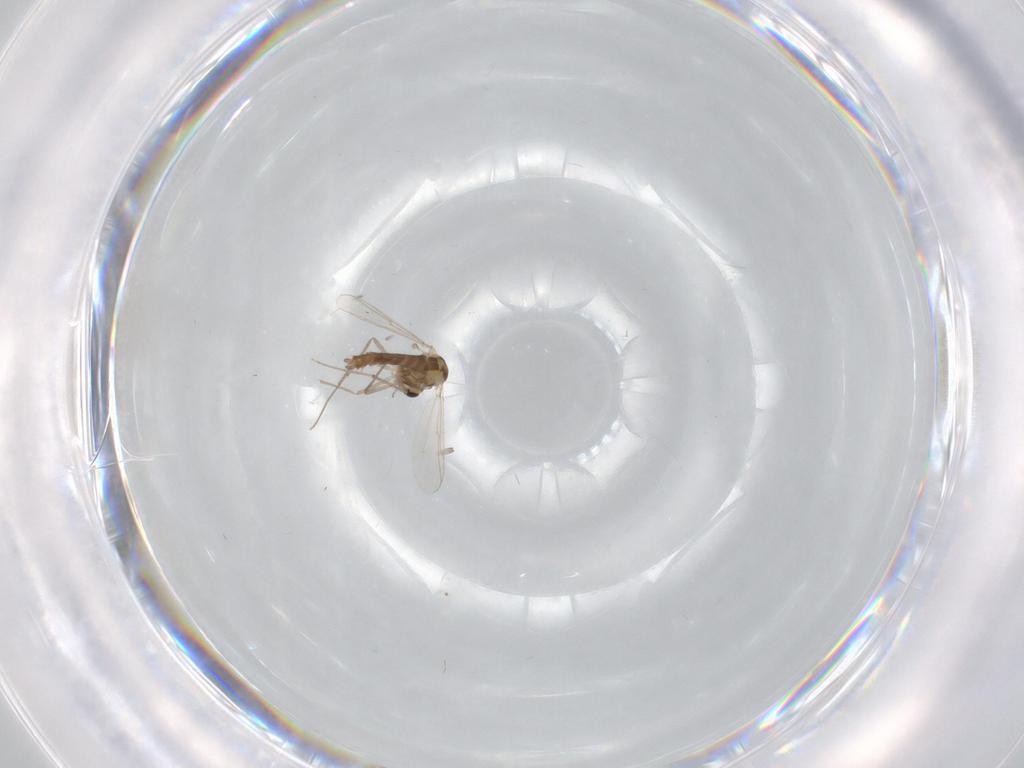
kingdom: Animalia
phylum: Arthropoda
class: Insecta
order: Diptera
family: Chironomidae
